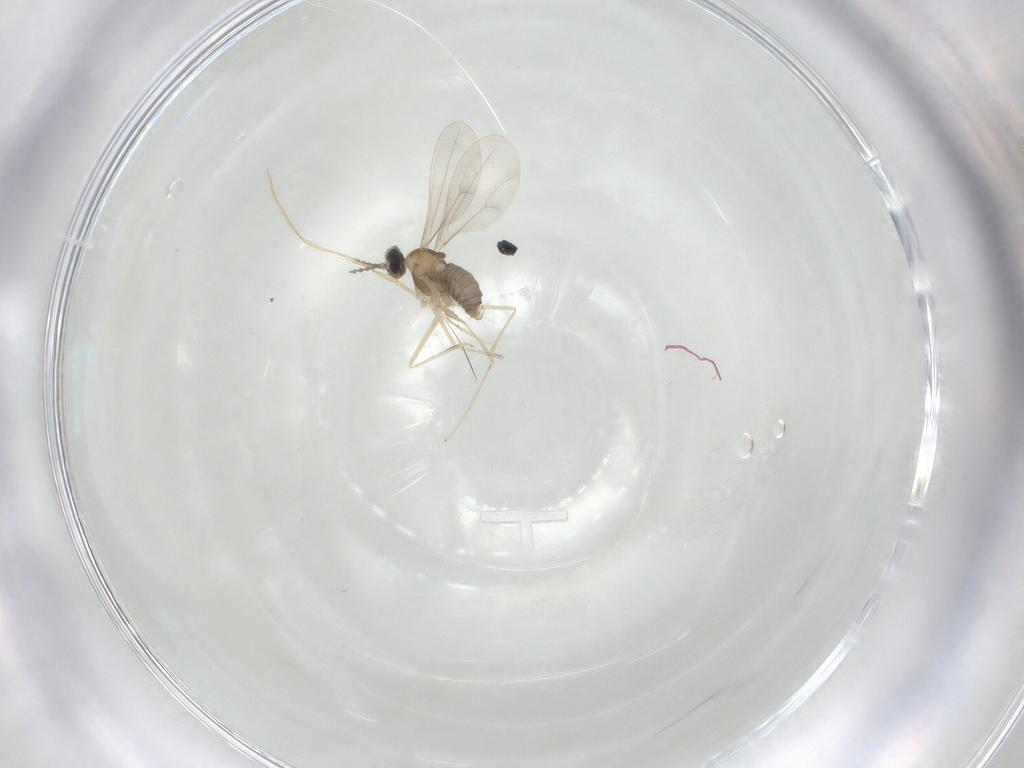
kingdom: Animalia
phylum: Arthropoda
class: Insecta
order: Diptera
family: Cecidomyiidae
